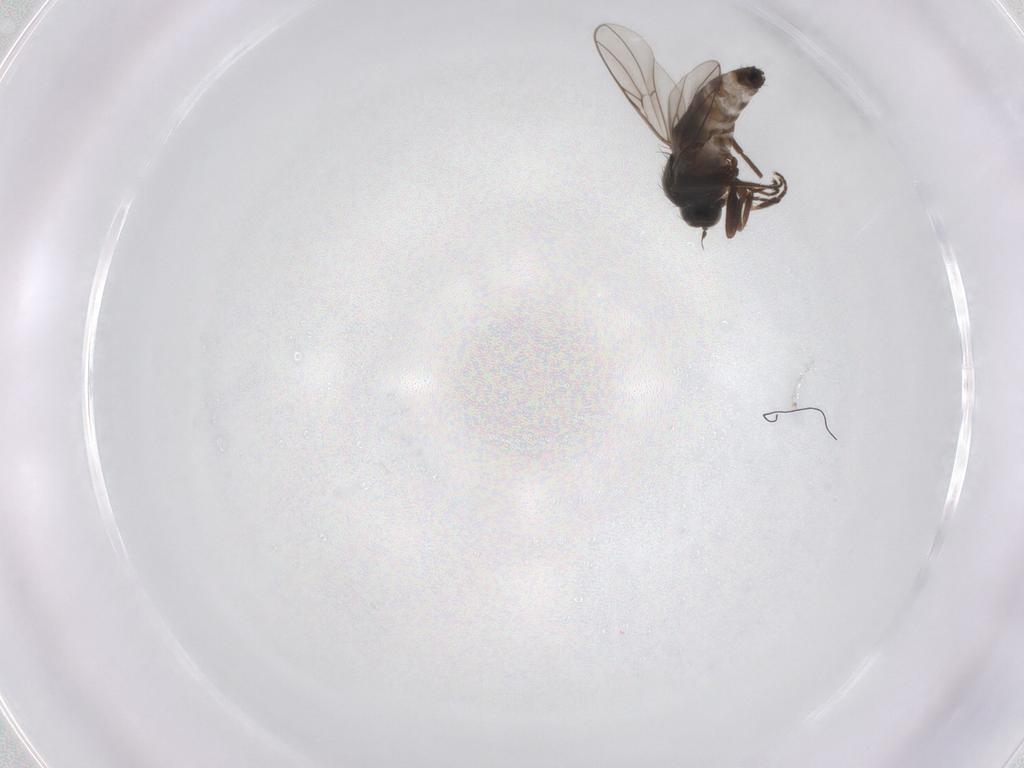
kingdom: Animalia
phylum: Arthropoda
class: Insecta
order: Diptera
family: Hybotidae
